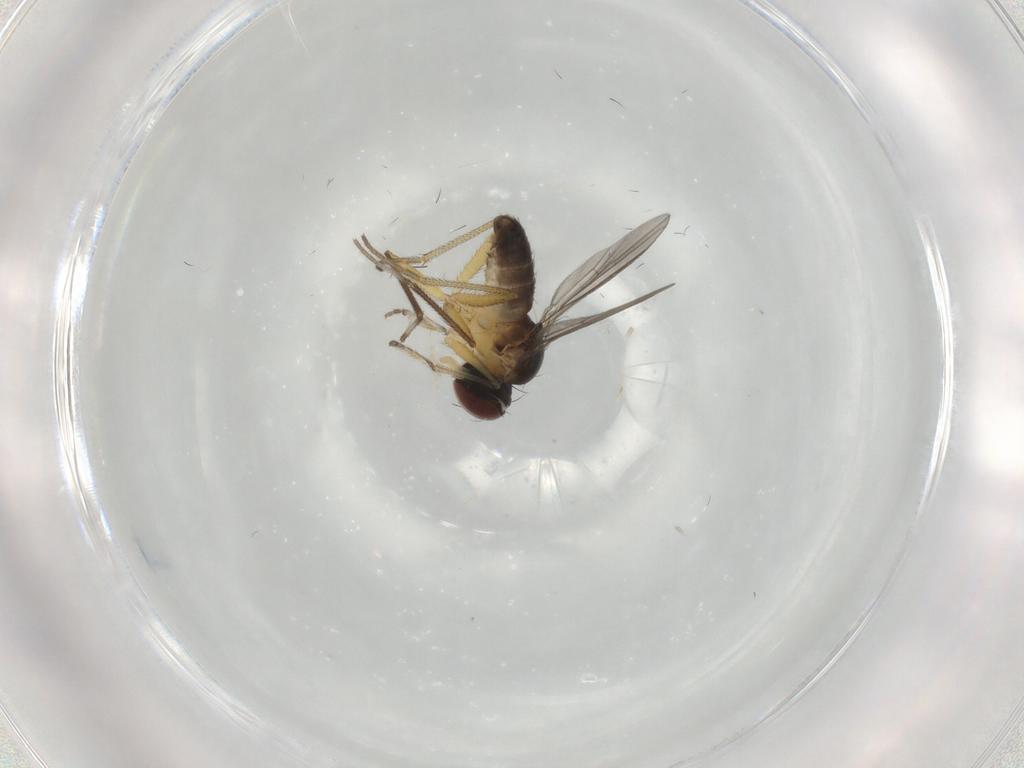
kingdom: Animalia
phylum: Arthropoda
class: Insecta
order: Diptera
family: Dolichopodidae
